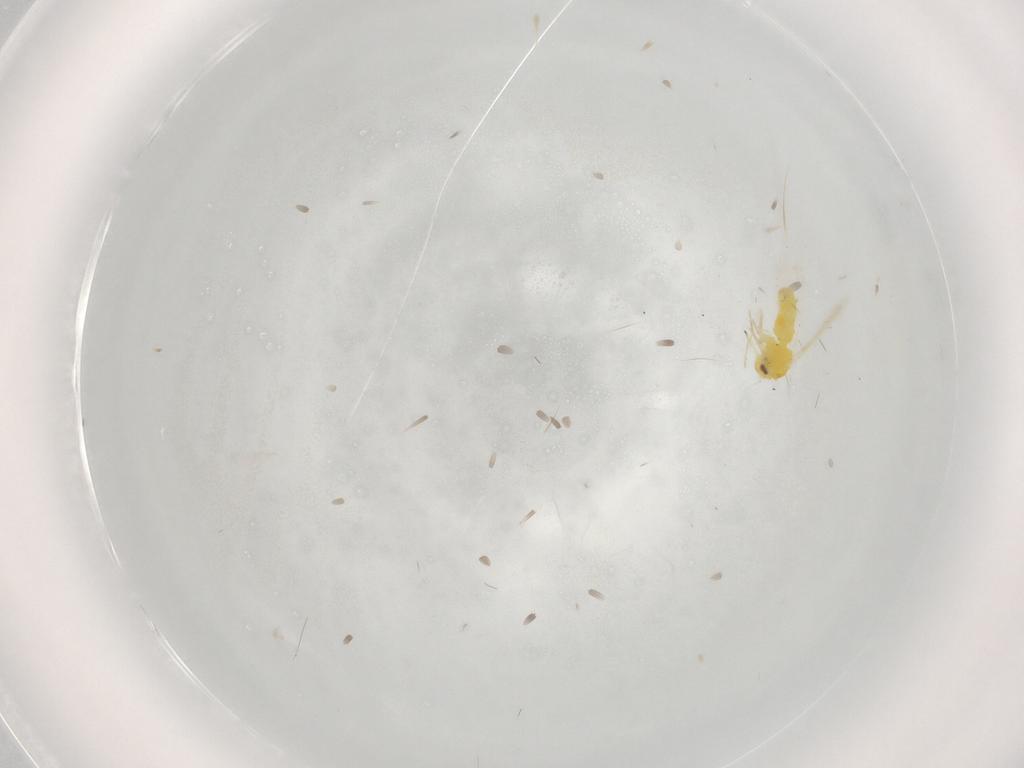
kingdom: Animalia
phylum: Arthropoda
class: Insecta
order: Hemiptera
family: Aleyrodidae
